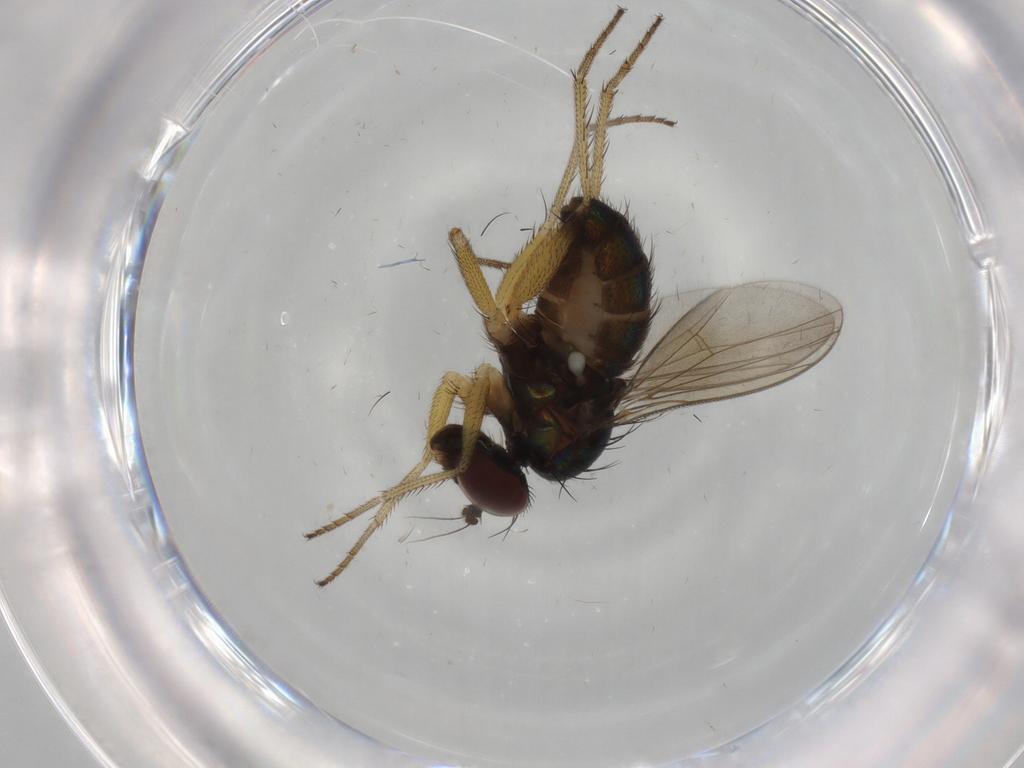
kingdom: Animalia
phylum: Arthropoda
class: Insecta
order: Diptera
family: Dolichopodidae
